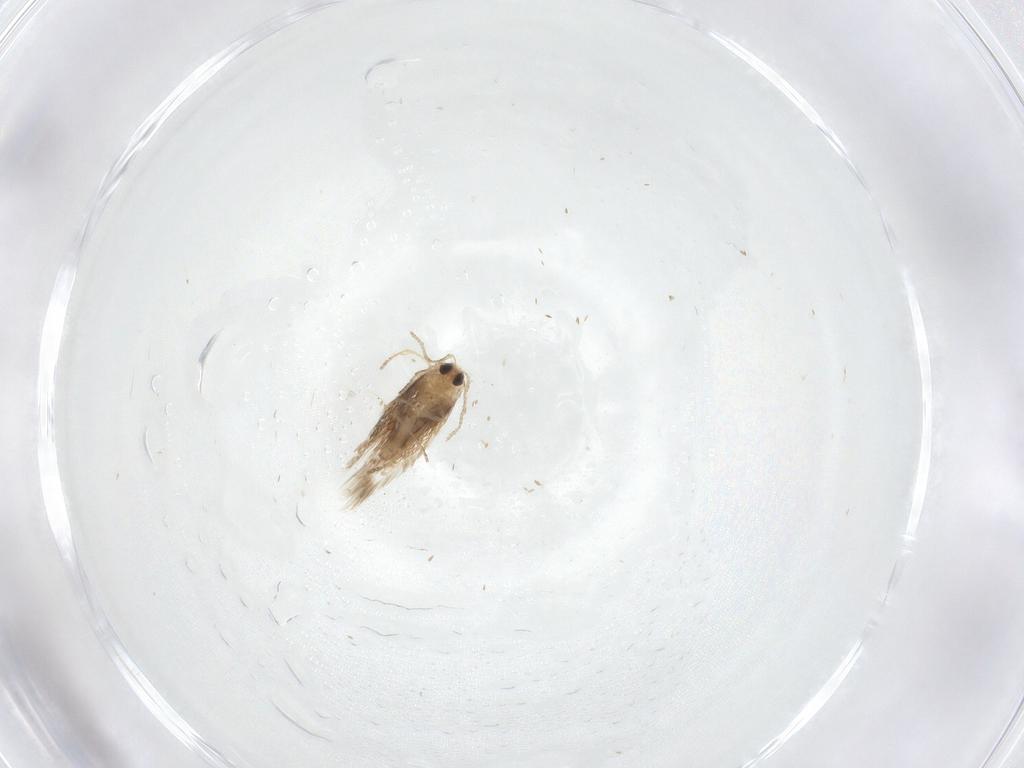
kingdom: Animalia
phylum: Arthropoda
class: Insecta
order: Lepidoptera
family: Nepticulidae
